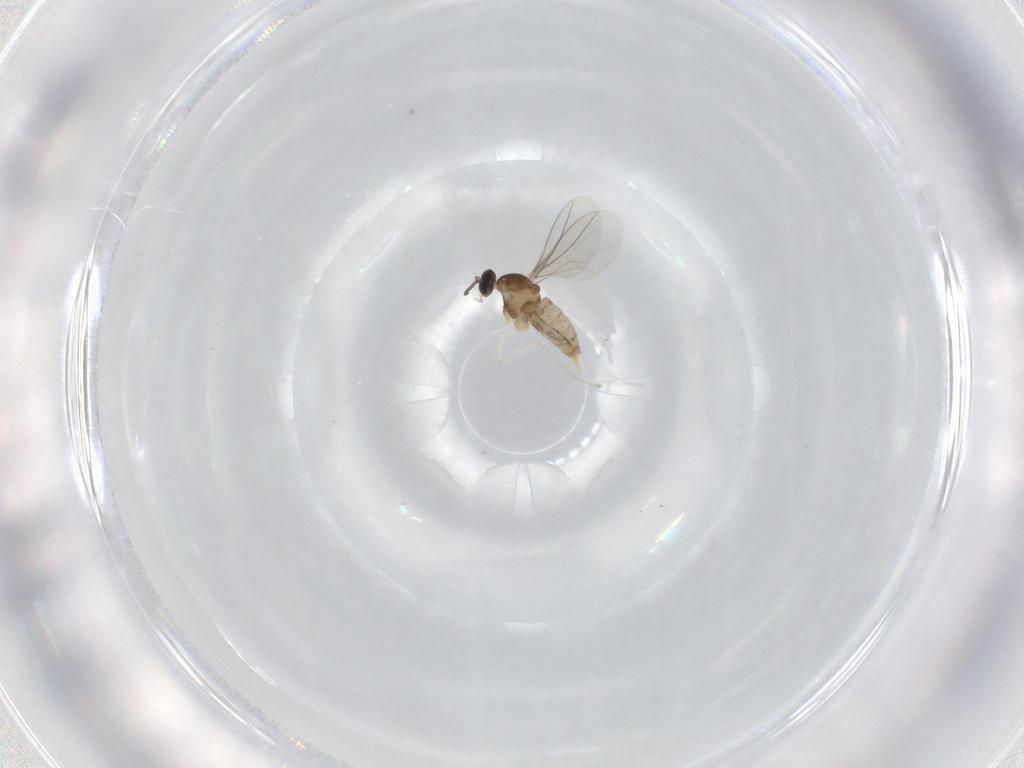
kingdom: Animalia
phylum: Arthropoda
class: Insecta
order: Diptera
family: Cecidomyiidae
